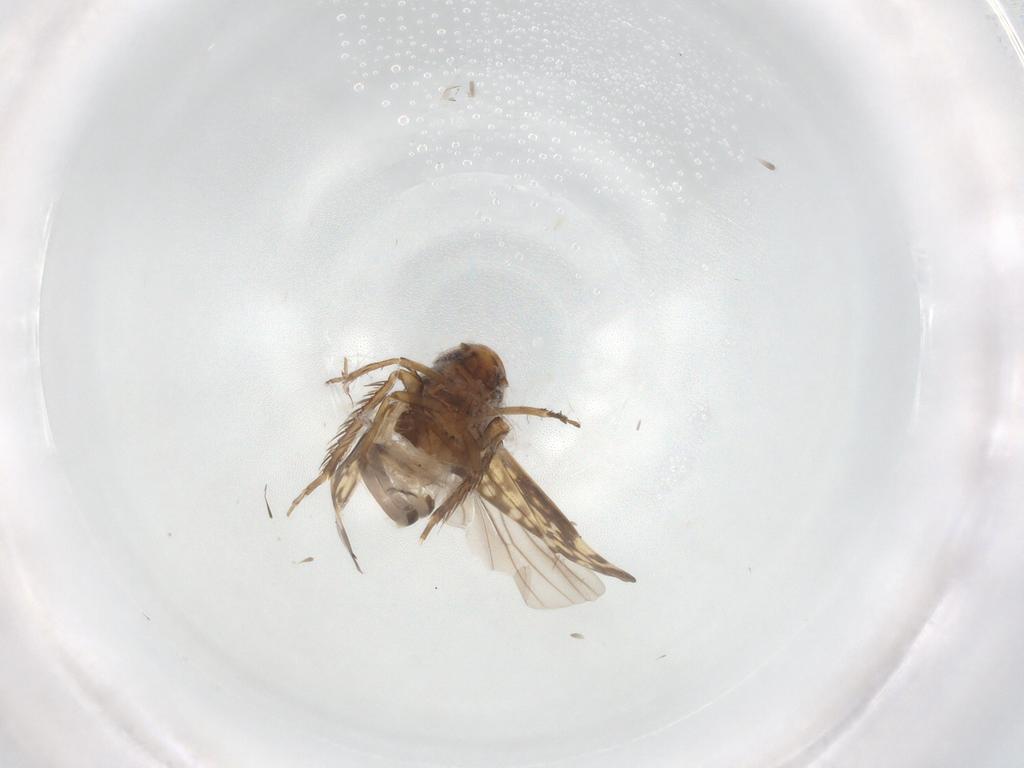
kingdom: Animalia
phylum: Arthropoda
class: Insecta
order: Hemiptera
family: Cicadellidae
